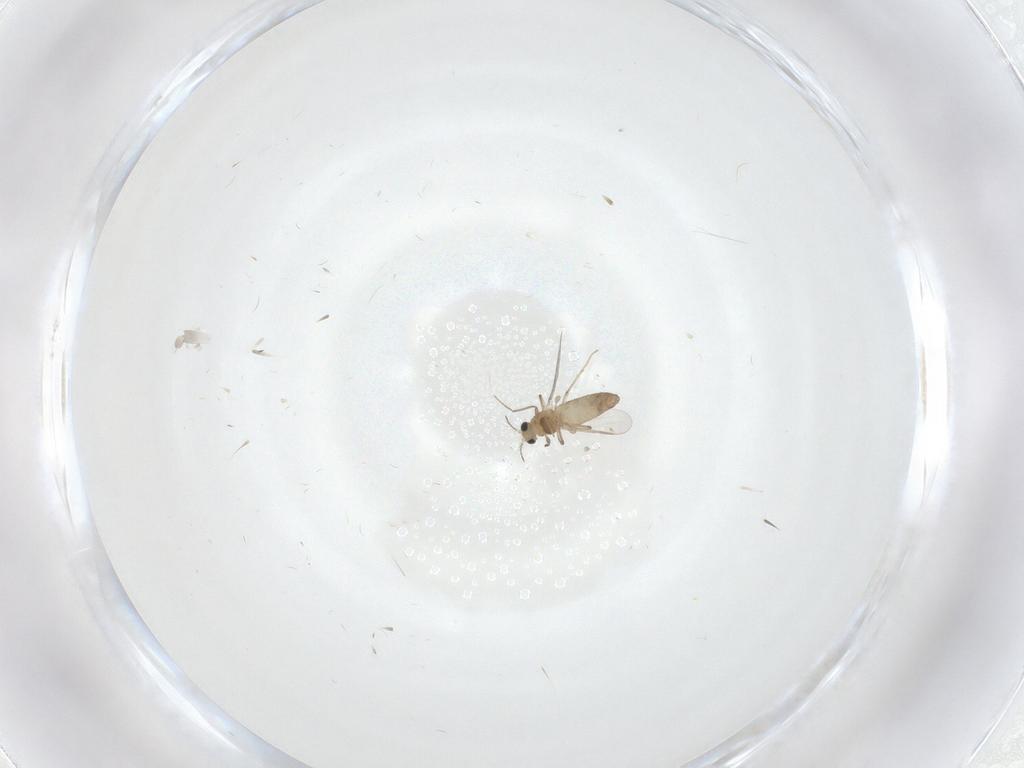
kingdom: Animalia
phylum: Arthropoda
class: Insecta
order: Diptera
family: Chironomidae
